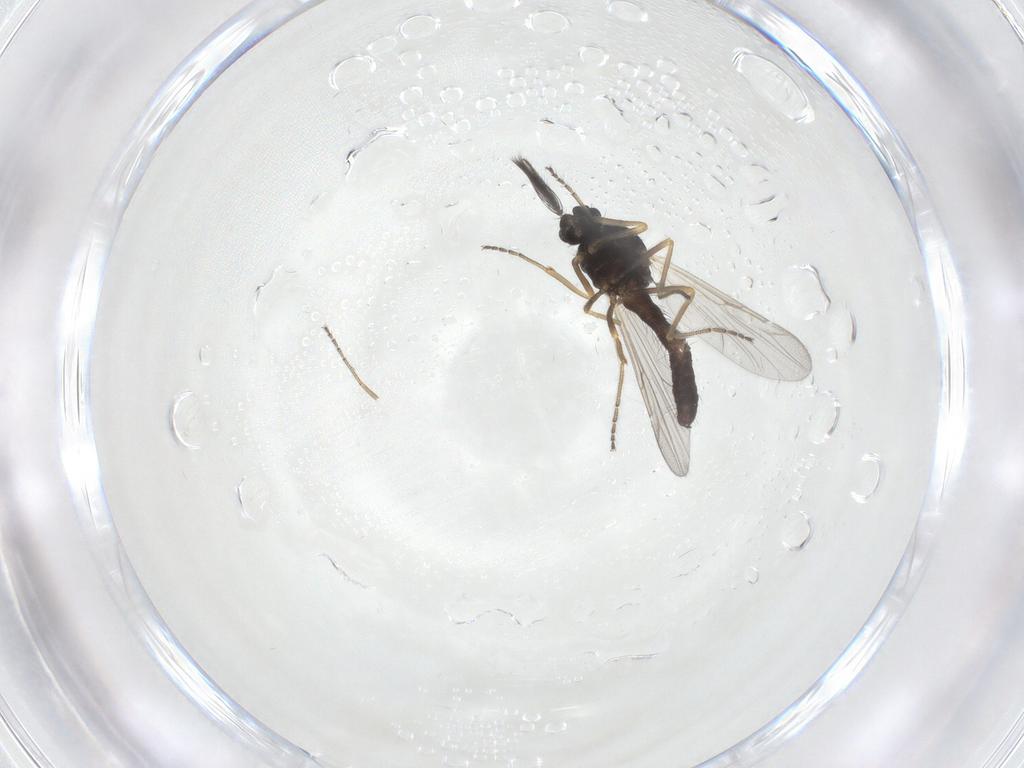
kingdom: Animalia
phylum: Arthropoda
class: Insecta
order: Diptera
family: Ceratopogonidae
